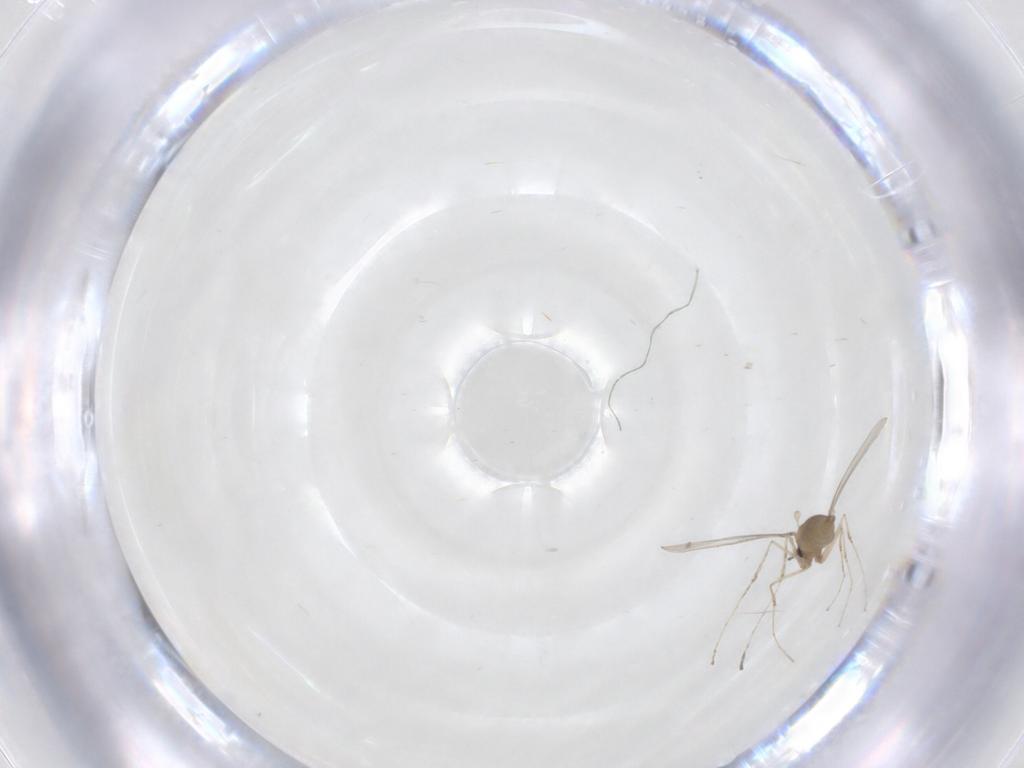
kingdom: Animalia
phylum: Arthropoda
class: Insecta
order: Diptera
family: Cecidomyiidae
